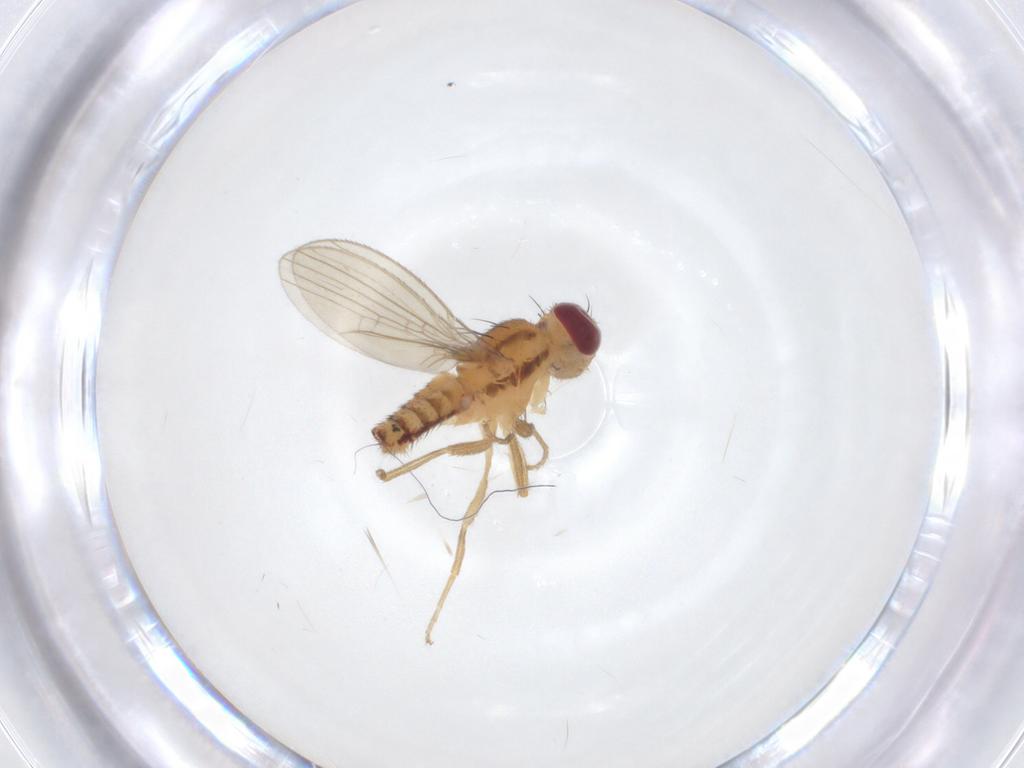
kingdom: Animalia
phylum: Arthropoda
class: Insecta
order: Diptera
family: Anthomyzidae
